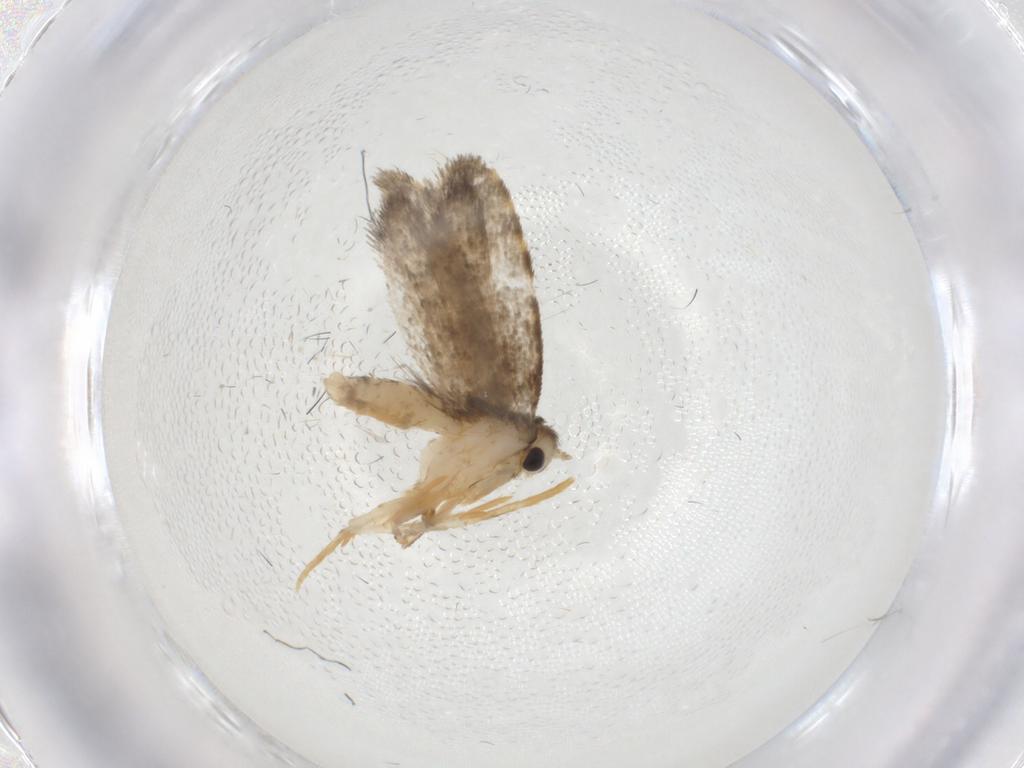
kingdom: Animalia
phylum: Arthropoda
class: Insecta
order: Lepidoptera
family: Psychidae
